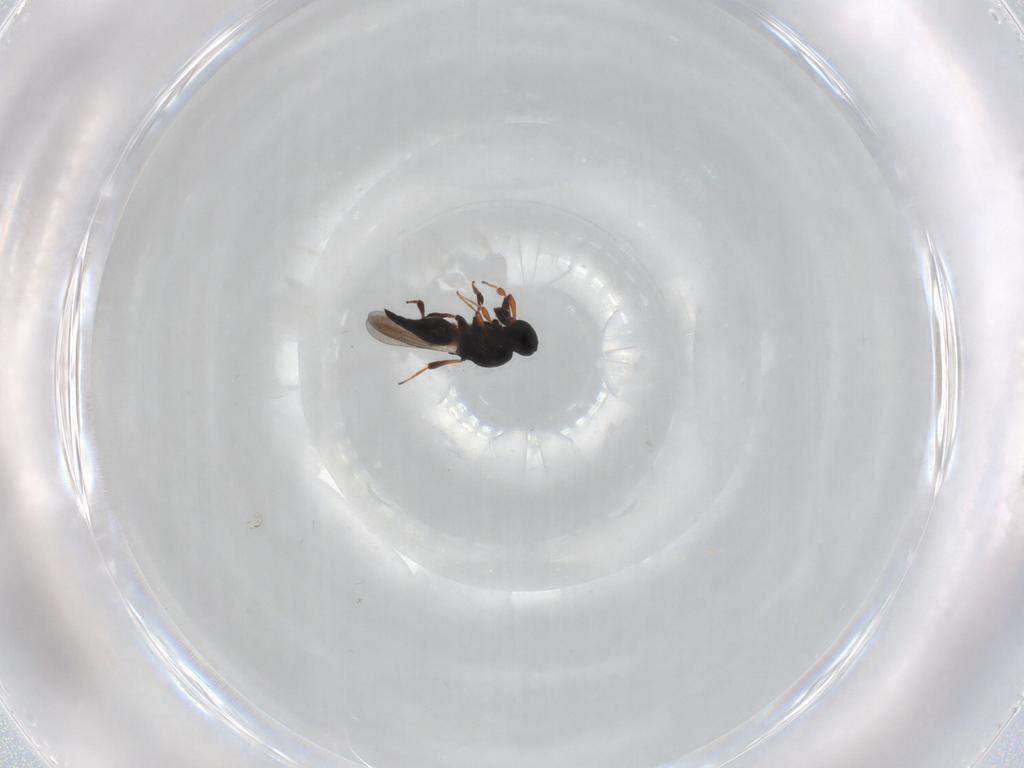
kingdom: Animalia
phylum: Arthropoda
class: Insecta
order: Hymenoptera
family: Platygastridae
